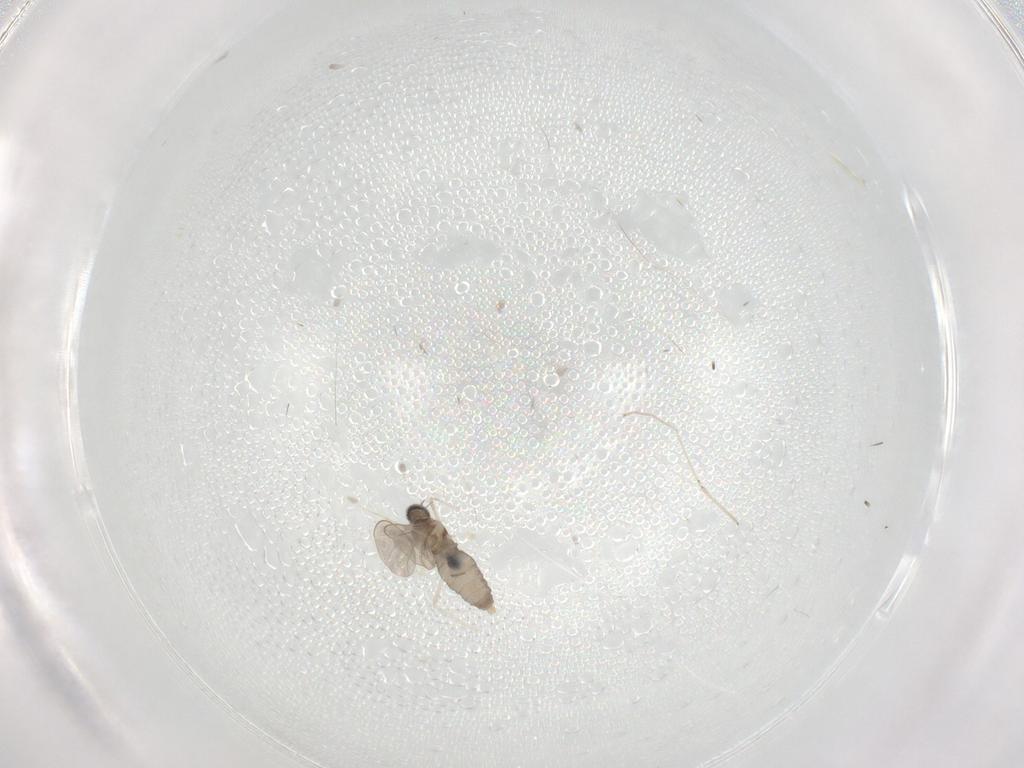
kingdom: Animalia
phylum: Arthropoda
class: Insecta
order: Diptera
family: Cecidomyiidae
